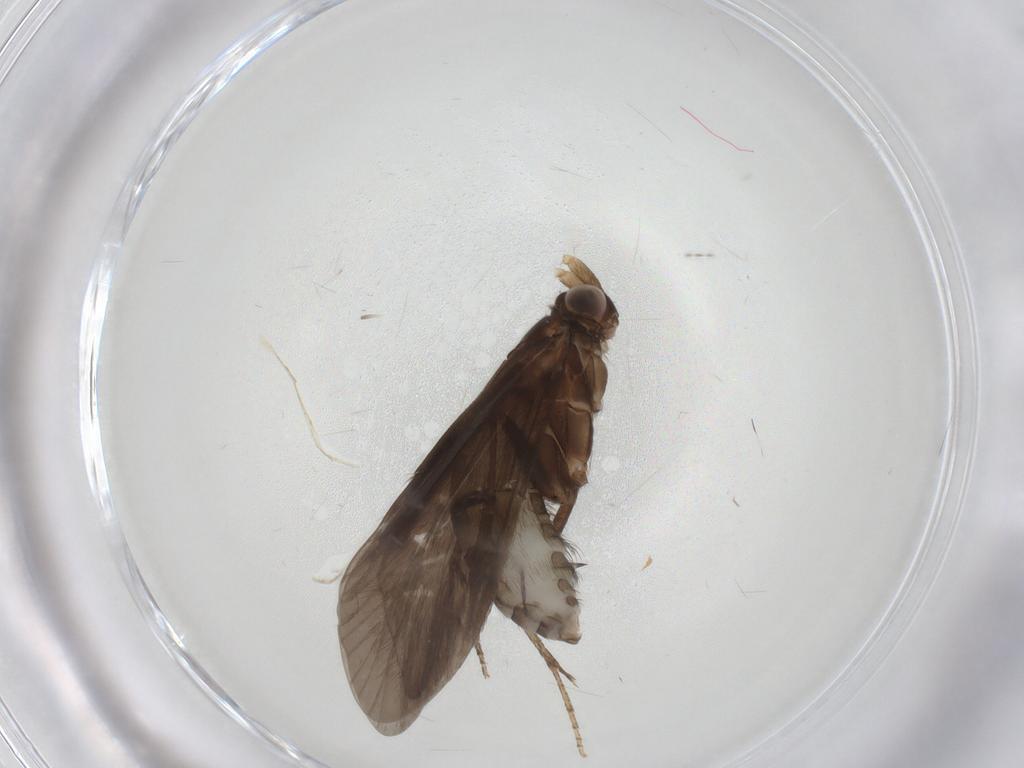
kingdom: Animalia
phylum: Arthropoda
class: Insecta
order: Trichoptera
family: Helicopsychidae
